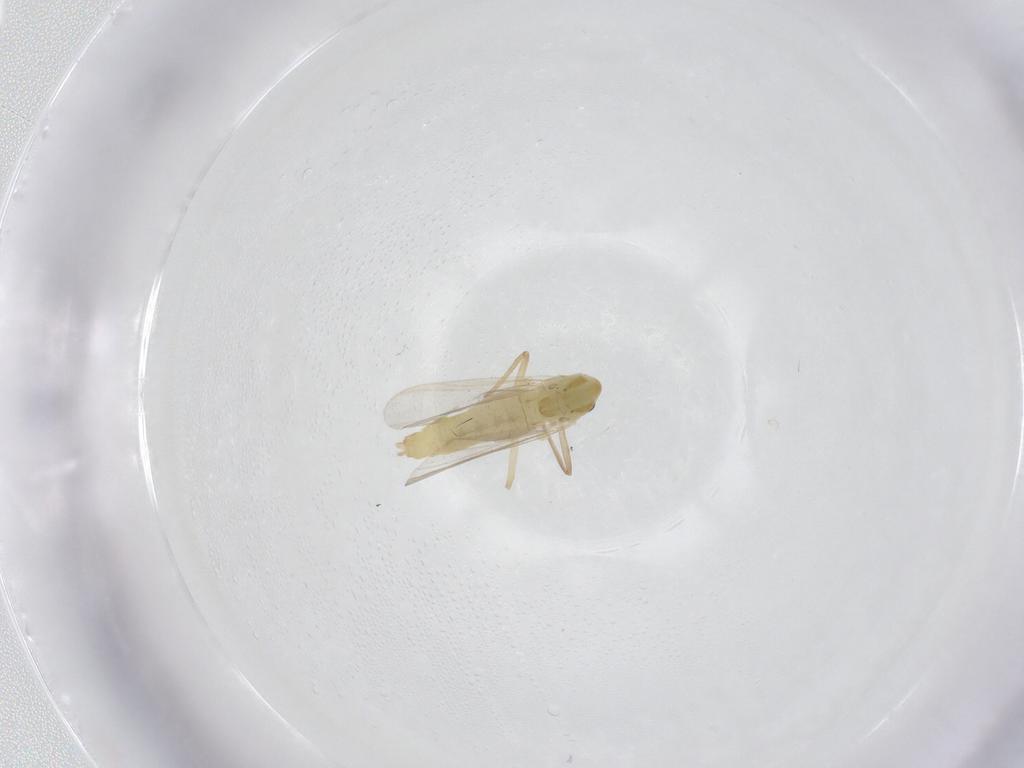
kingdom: Animalia
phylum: Arthropoda
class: Insecta
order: Diptera
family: Chironomidae
